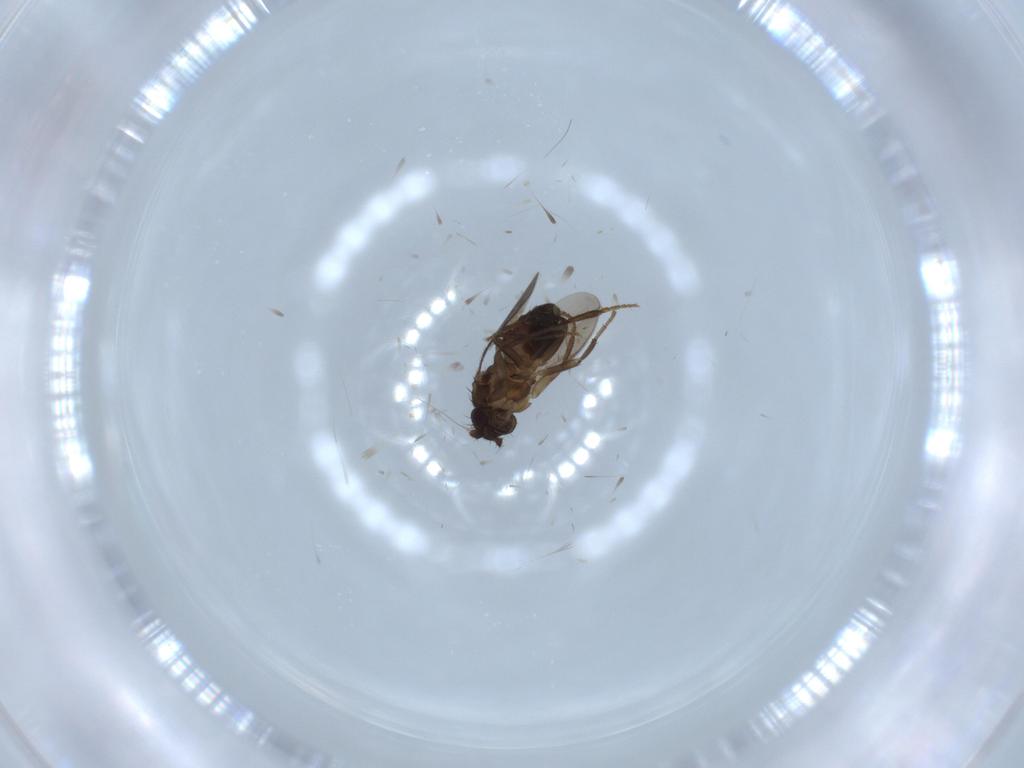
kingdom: Animalia
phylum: Arthropoda
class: Insecta
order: Diptera
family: Sphaeroceridae
